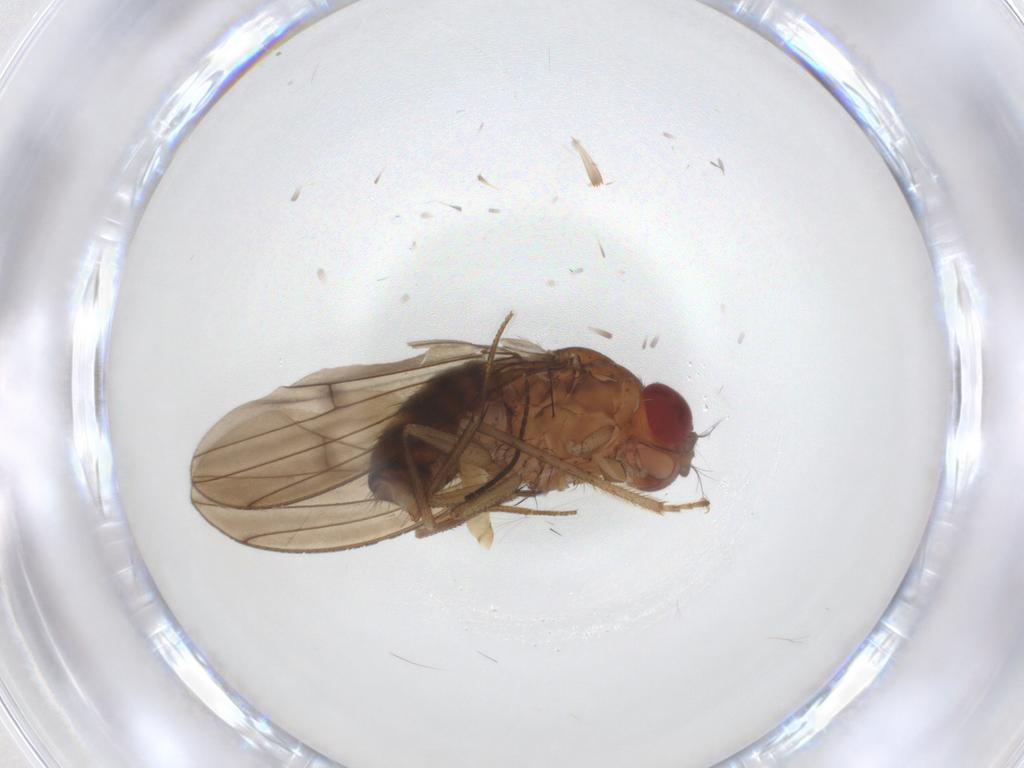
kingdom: Animalia
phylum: Arthropoda
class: Insecta
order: Diptera
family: Drosophilidae
